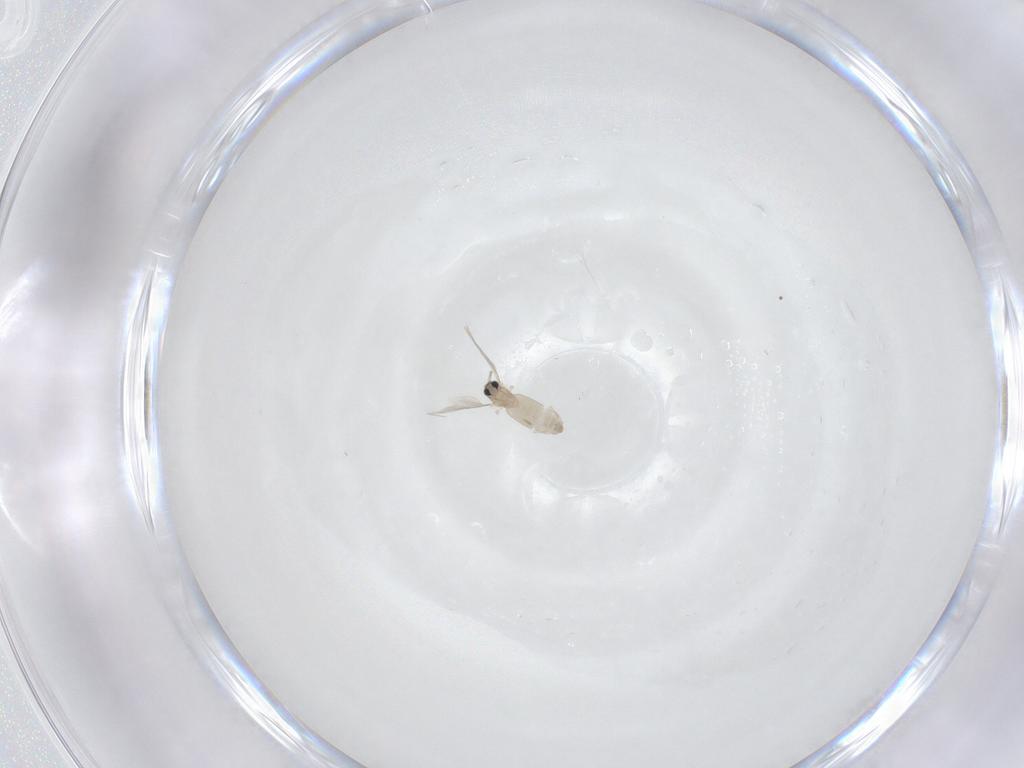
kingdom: Animalia
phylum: Arthropoda
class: Insecta
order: Diptera
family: Cecidomyiidae
